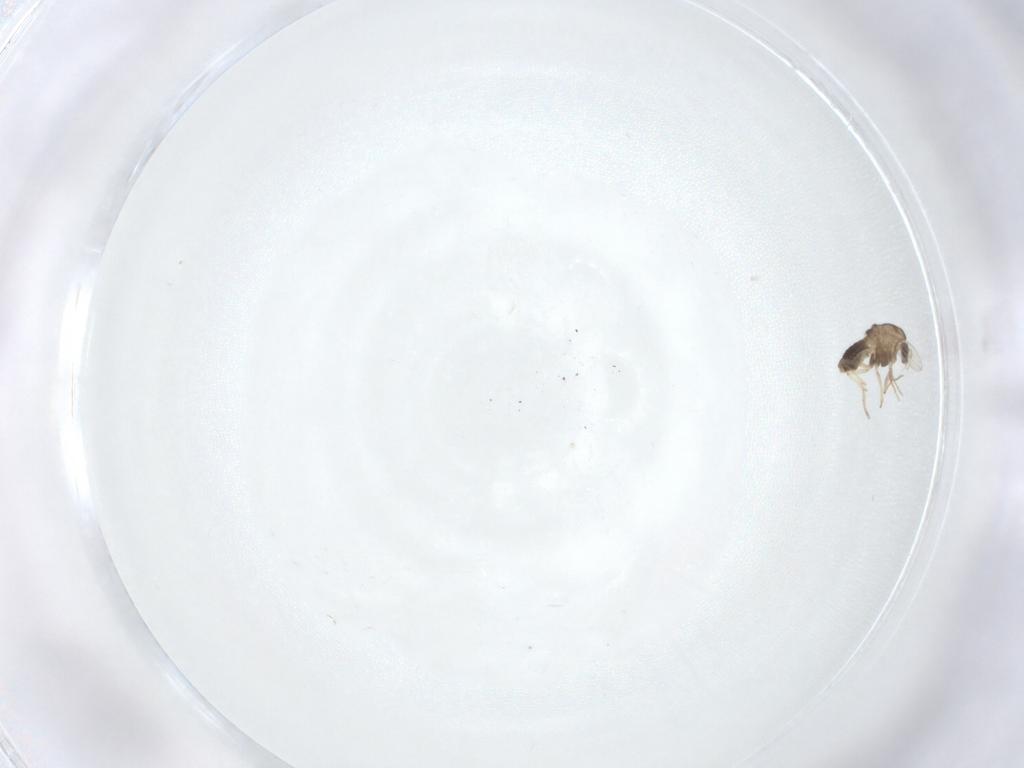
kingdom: Animalia
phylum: Arthropoda
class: Insecta
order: Diptera
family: Chironomidae
